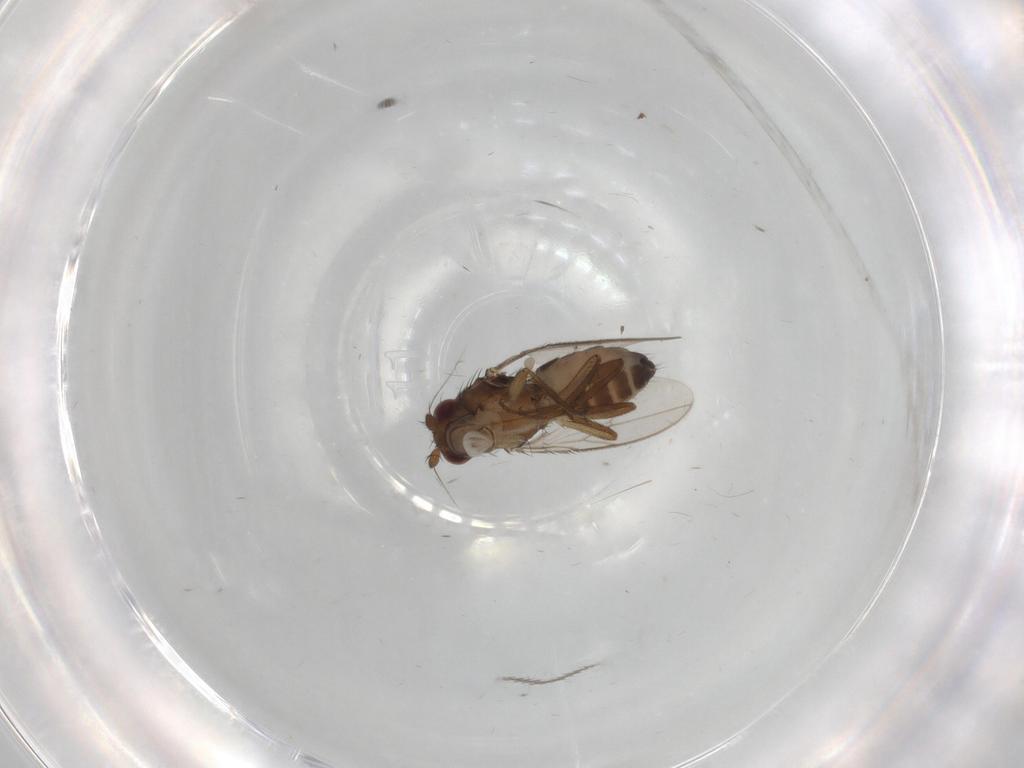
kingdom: Animalia
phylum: Arthropoda
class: Insecta
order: Diptera
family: Sphaeroceridae
